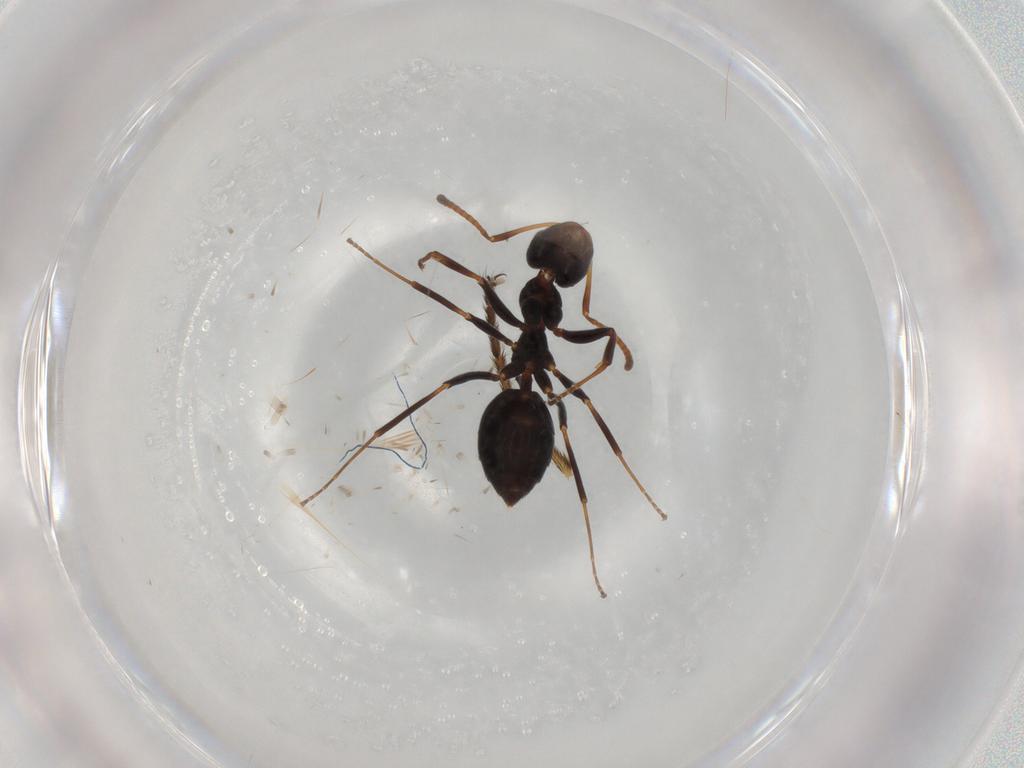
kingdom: Animalia
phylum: Arthropoda
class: Insecta
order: Hymenoptera
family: Formicidae
